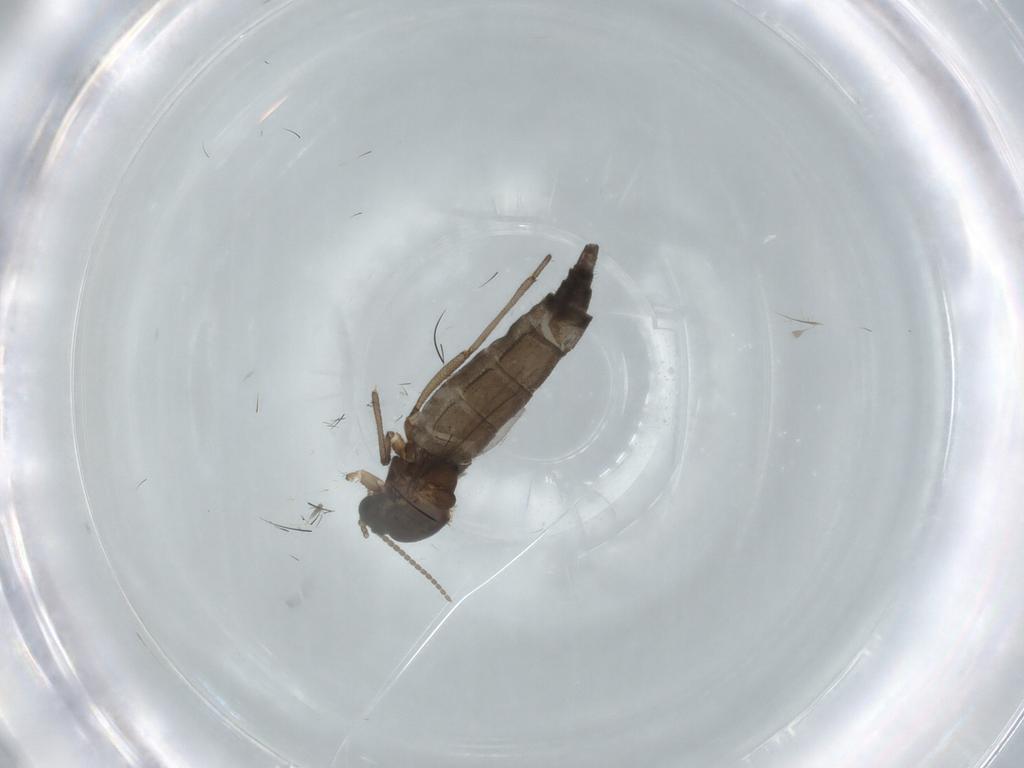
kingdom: Animalia
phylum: Arthropoda
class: Insecta
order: Diptera
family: Sciaridae
